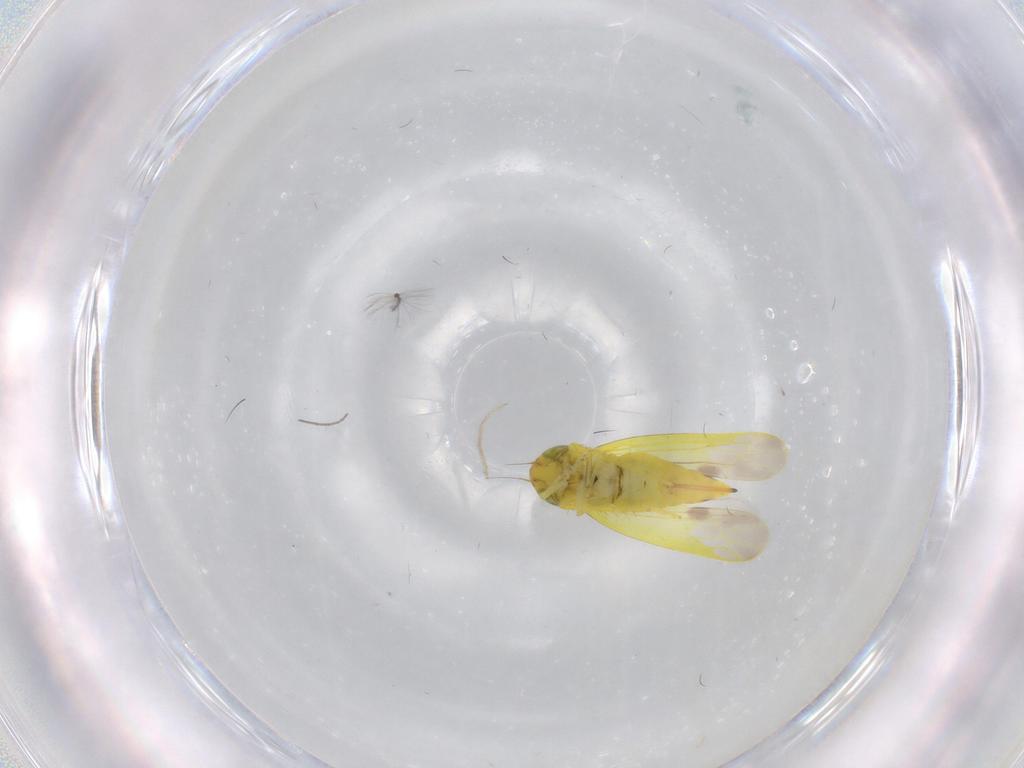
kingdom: Animalia
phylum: Arthropoda
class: Insecta
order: Hemiptera
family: Cicadellidae
